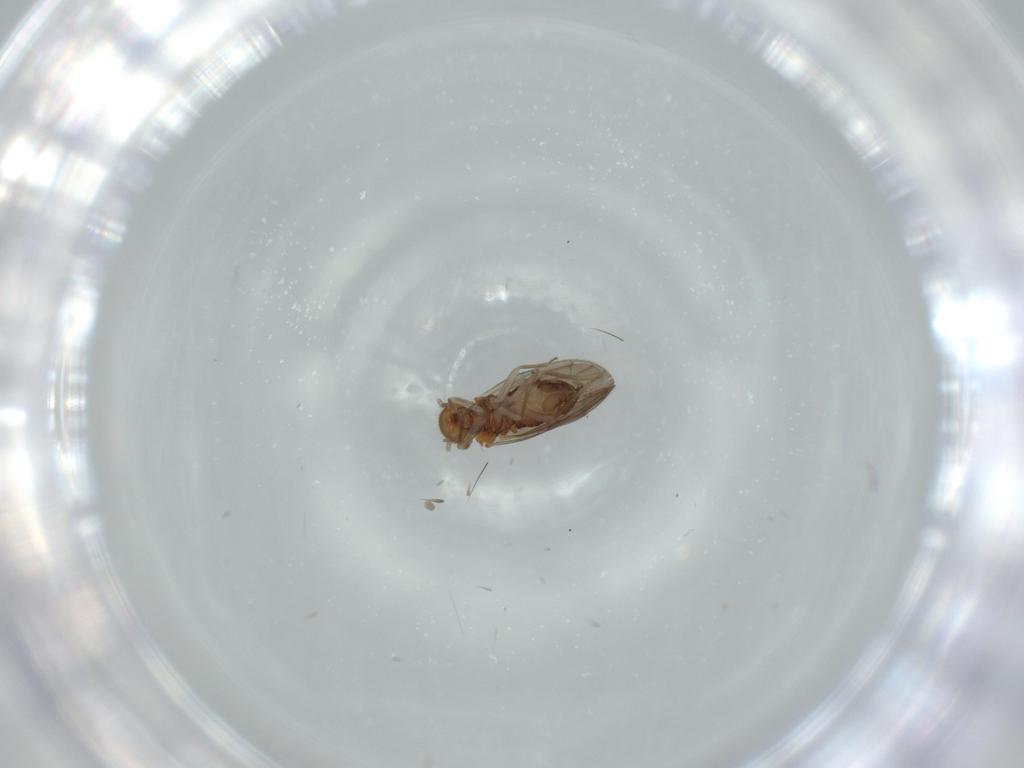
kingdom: Animalia
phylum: Arthropoda
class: Insecta
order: Psocodea
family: Ectopsocidae
